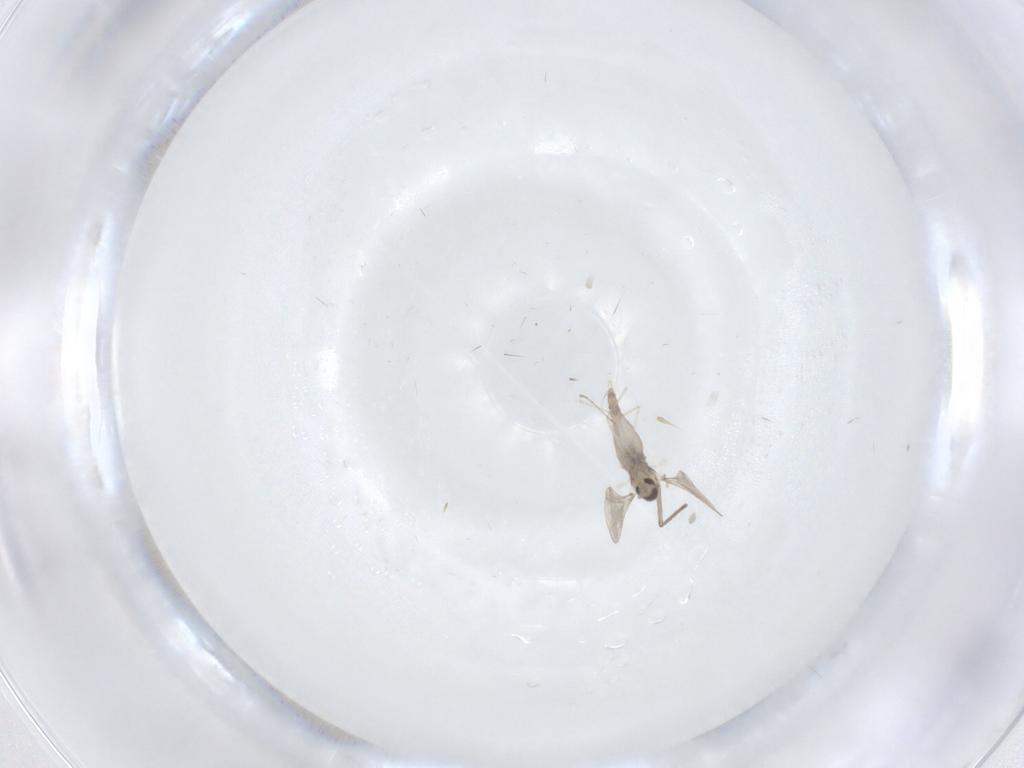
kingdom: Animalia
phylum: Arthropoda
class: Insecta
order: Diptera
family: Cecidomyiidae
